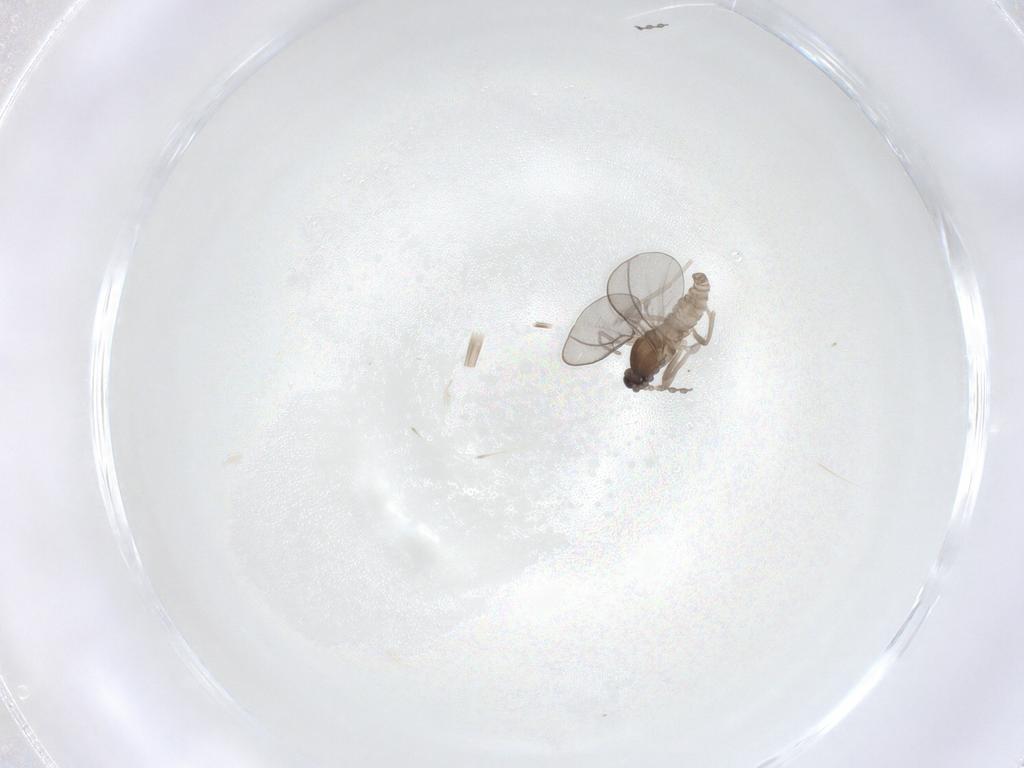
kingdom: Animalia
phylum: Arthropoda
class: Insecta
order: Diptera
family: Cecidomyiidae
